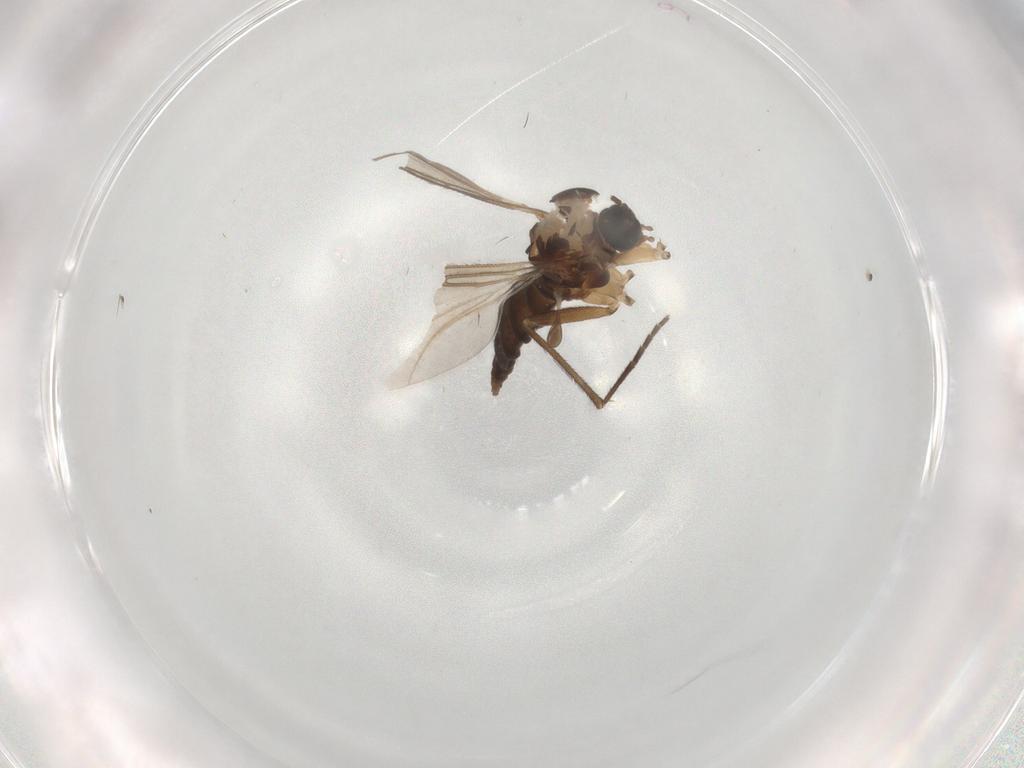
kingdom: Animalia
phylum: Arthropoda
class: Insecta
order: Diptera
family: Sciaridae
